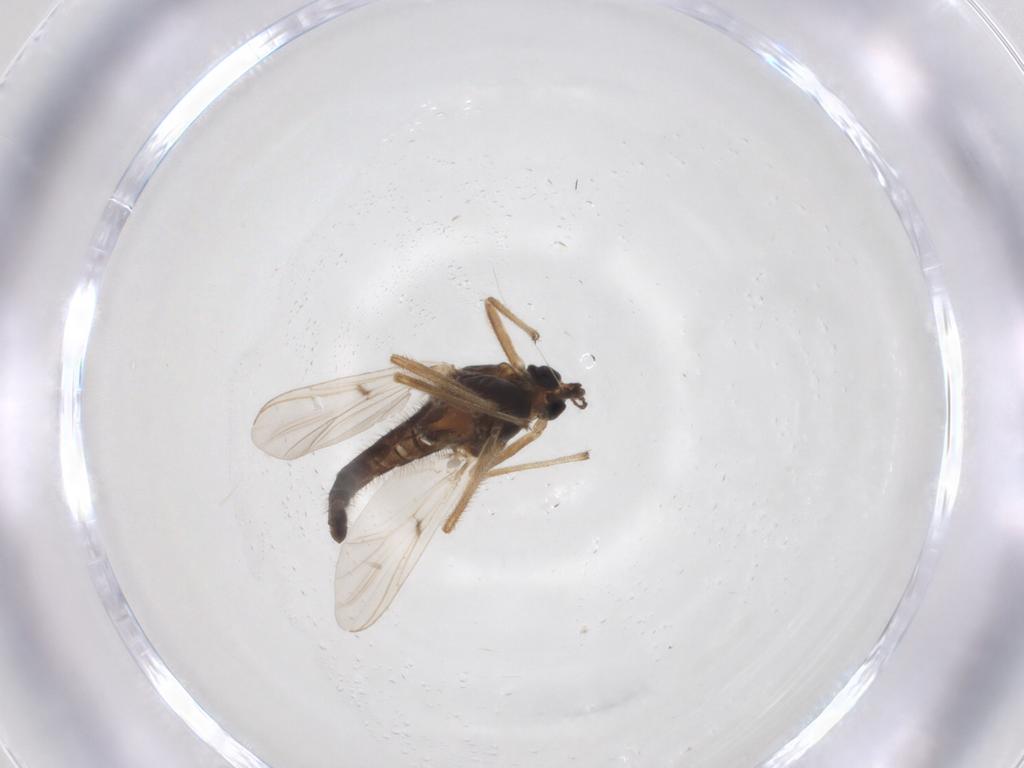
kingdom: Animalia
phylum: Arthropoda
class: Insecta
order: Diptera
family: Chironomidae
